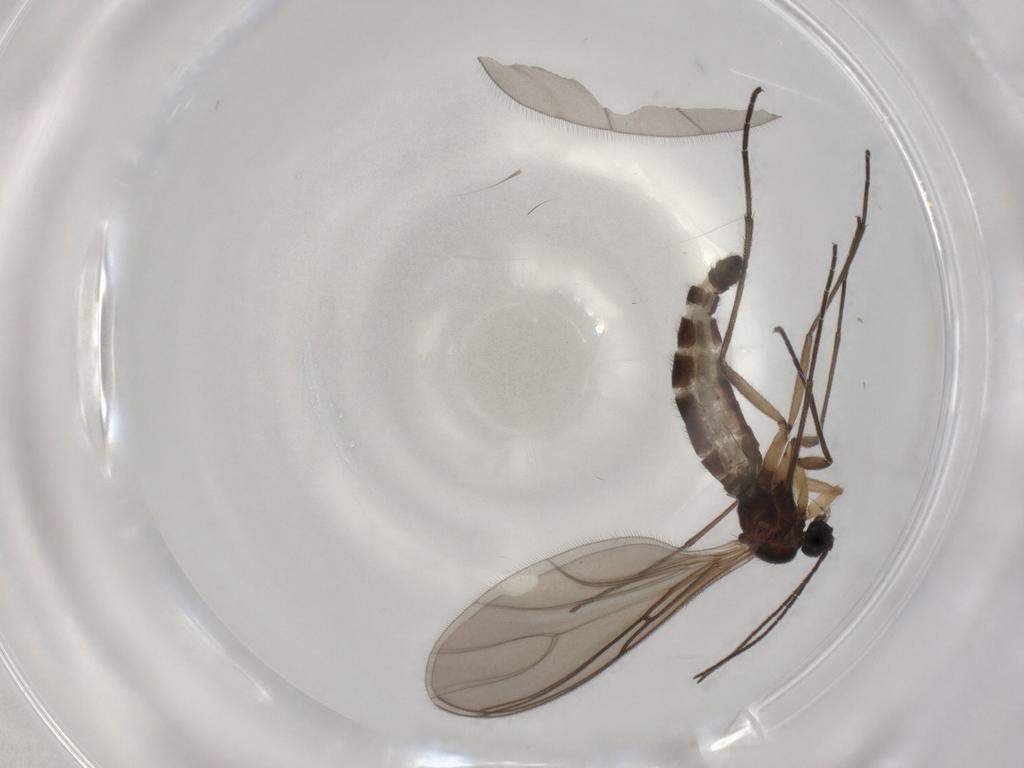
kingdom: Animalia
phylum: Arthropoda
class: Insecta
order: Diptera
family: Sciaridae
